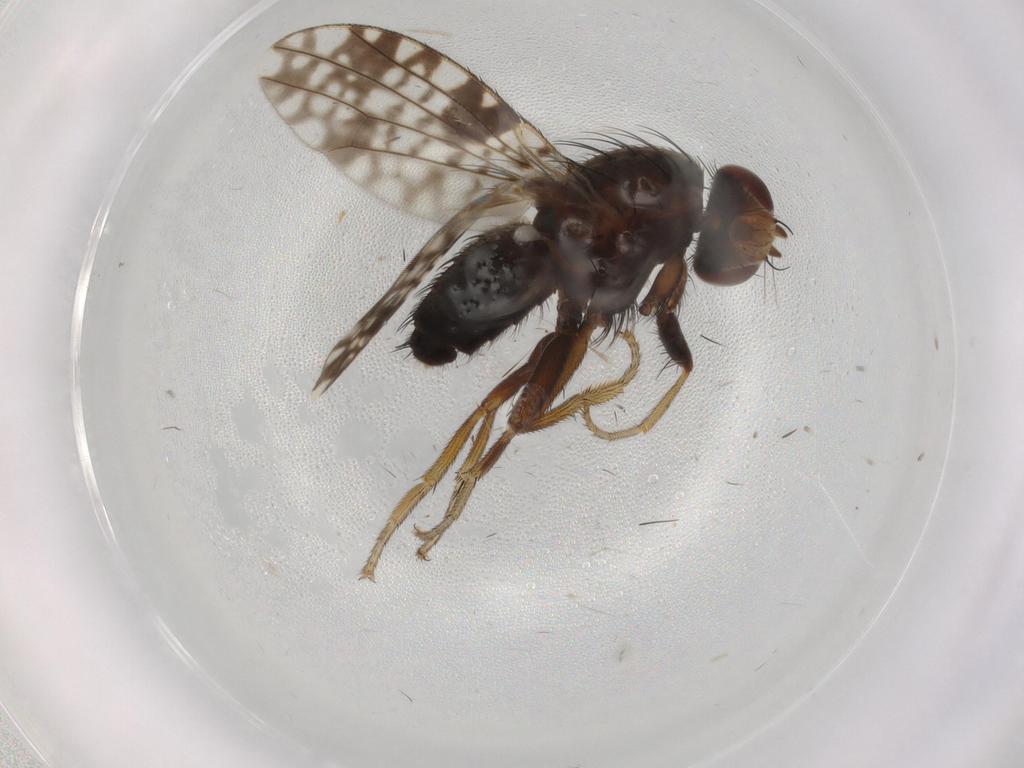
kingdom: Animalia
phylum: Arthropoda
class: Insecta
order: Diptera
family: Tephritidae
